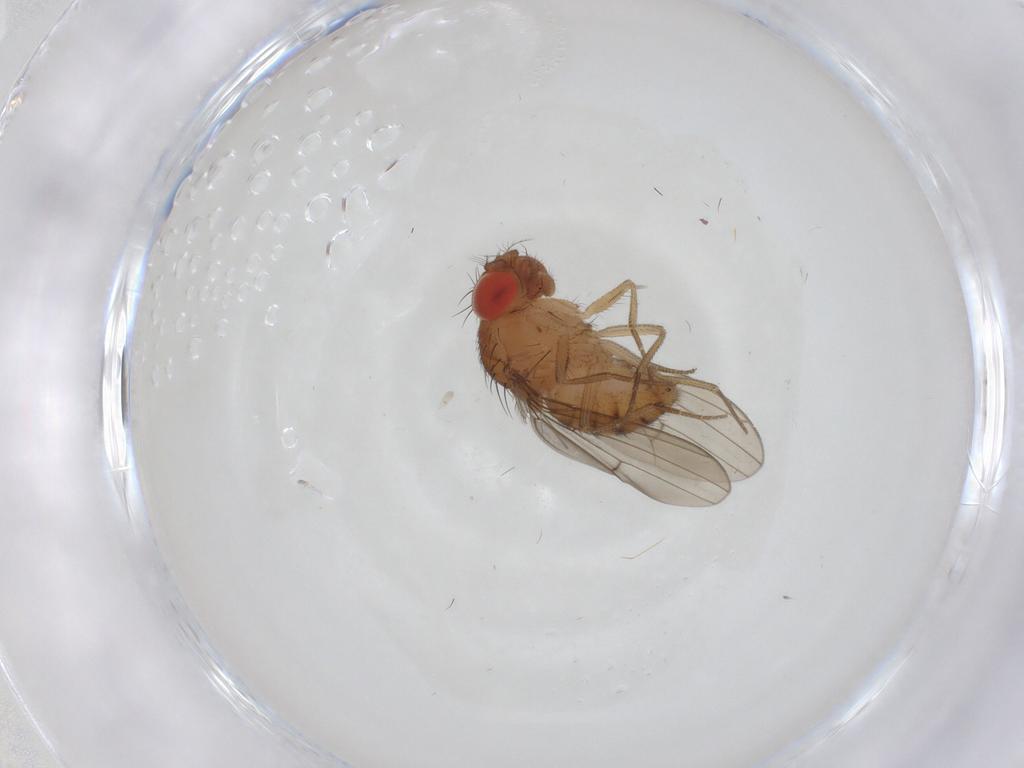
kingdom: Animalia
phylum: Arthropoda
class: Insecta
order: Diptera
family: Drosophilidae
